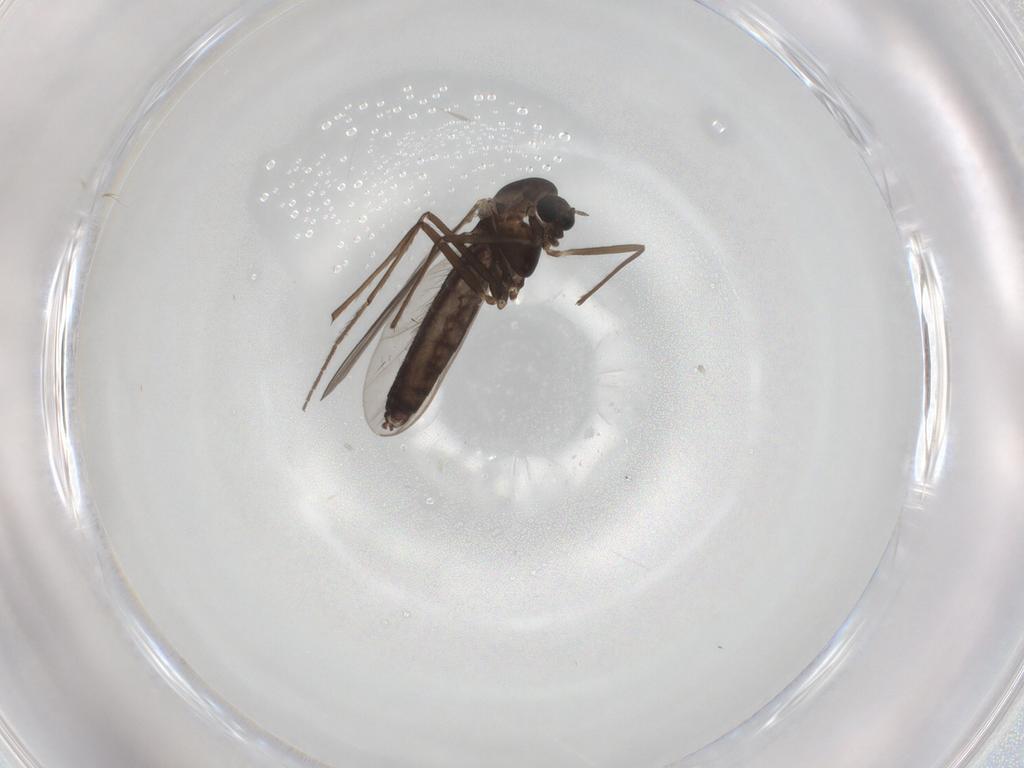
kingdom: Animalia
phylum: Arthropoda
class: Insecta
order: Diptera
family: Chironomidae
